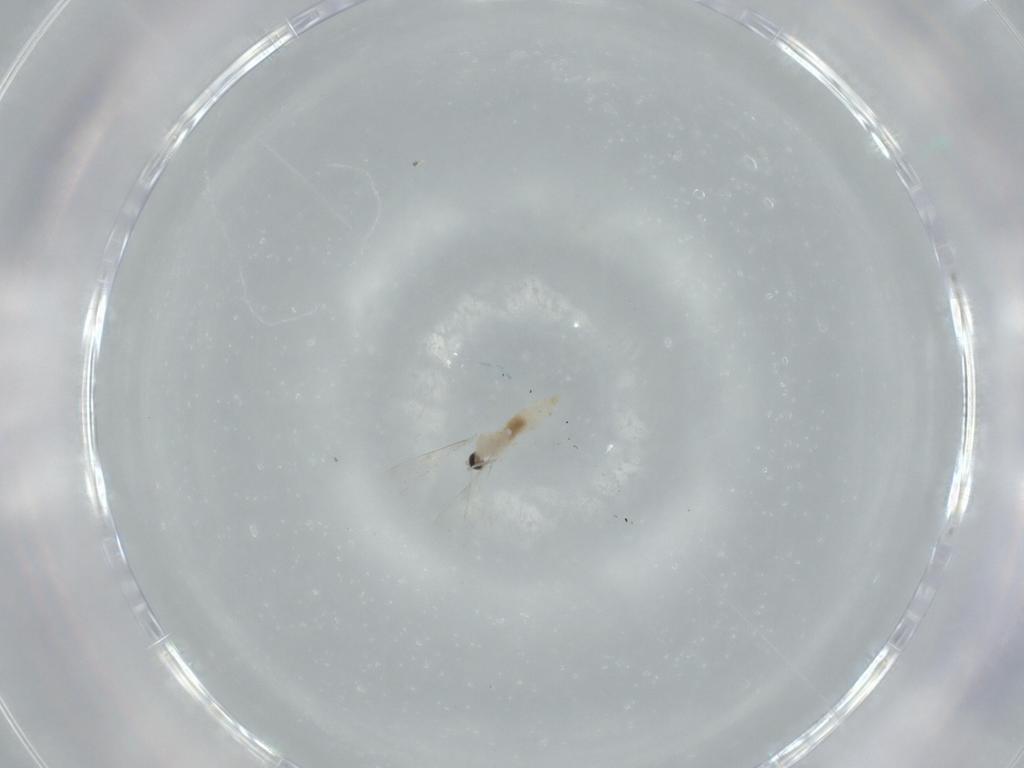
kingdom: Animalia
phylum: Arthropoda
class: Insecta
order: Diptera
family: Cecidomyiidae
